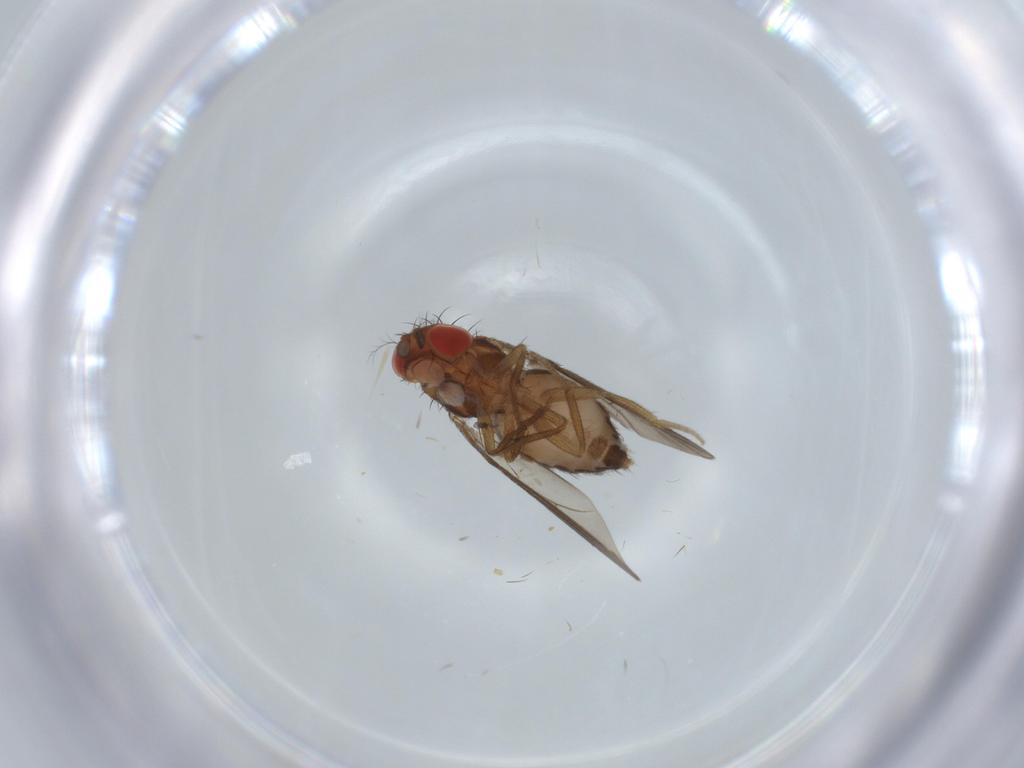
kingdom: Animalia
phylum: Arthropoda
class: Insecta
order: Diptera
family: Drosophilidae
